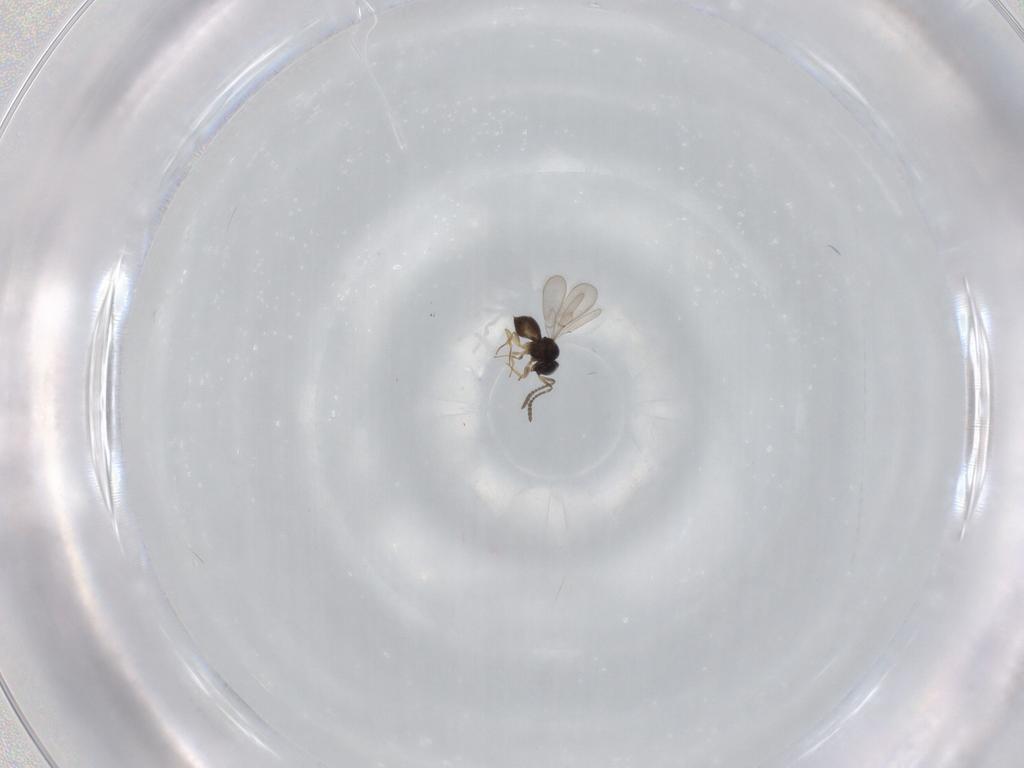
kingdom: Animalia
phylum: Arthropoda
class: Insecta
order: Hymenoptera
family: Scelionidae
